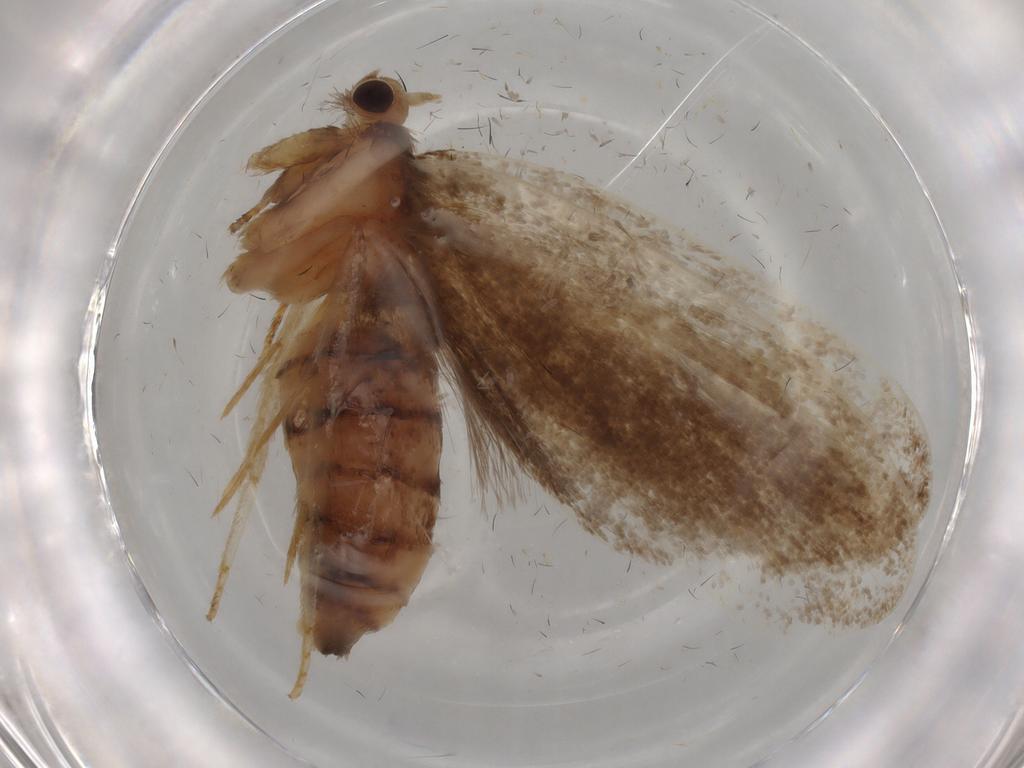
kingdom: Animalia
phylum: Arthropoda
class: Insecta
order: Lepidoptera
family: Tineidae
